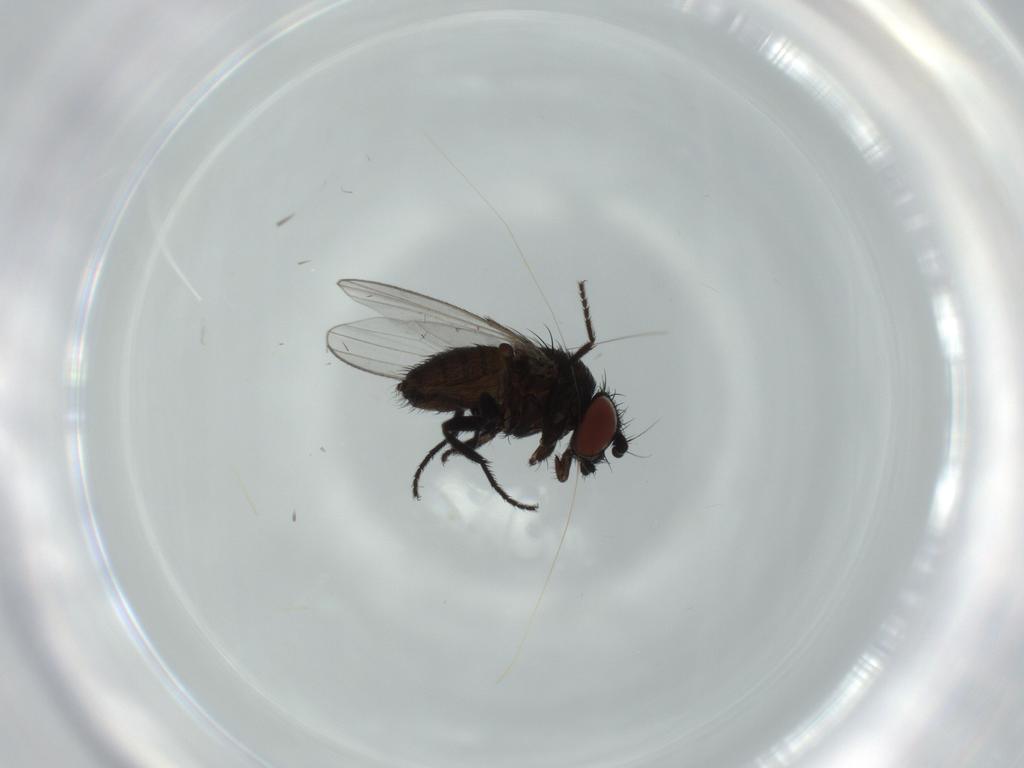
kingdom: Animalia
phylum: Arthropoda
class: Insecta
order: Diptera
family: Milichiidae
